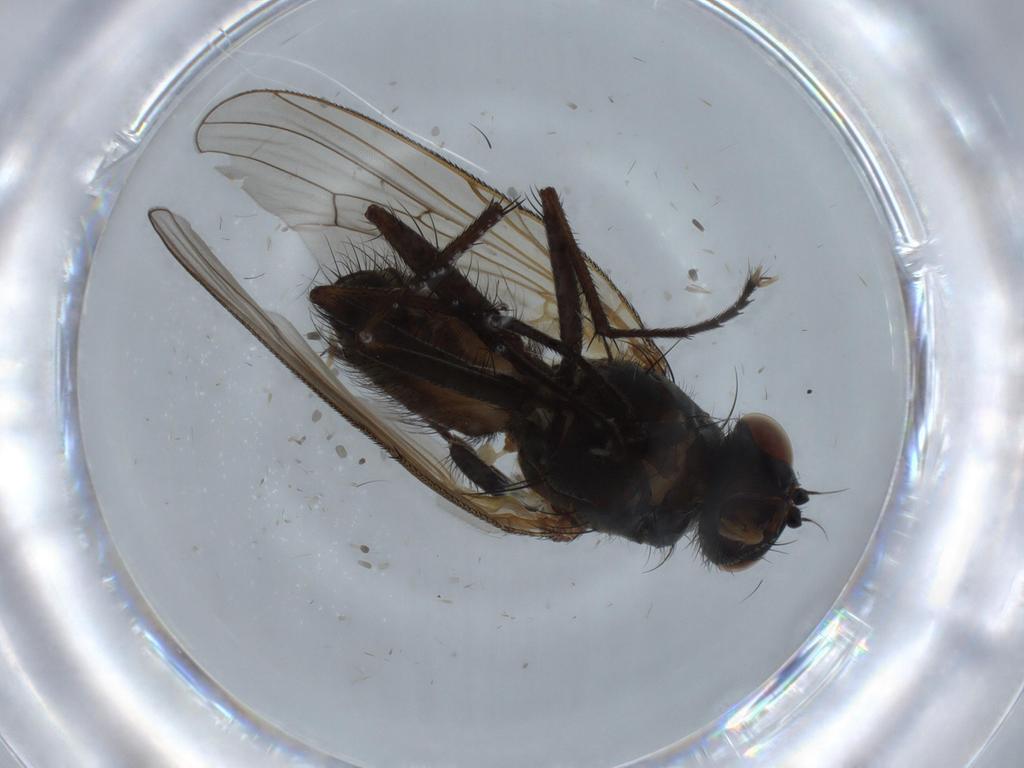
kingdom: Animalia
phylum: Arthropoda
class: Insecta
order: Diptera
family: Anthomyiidae
